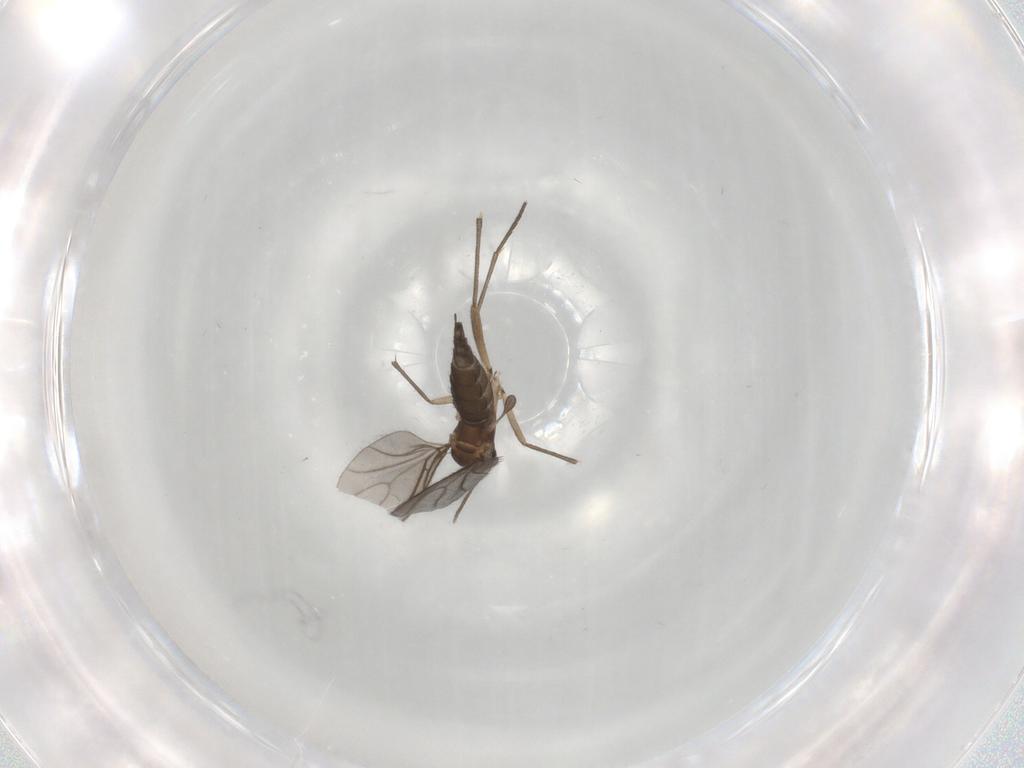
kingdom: Animalia
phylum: Arthropoda
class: Insecta
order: Diptera
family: Sciaridae
